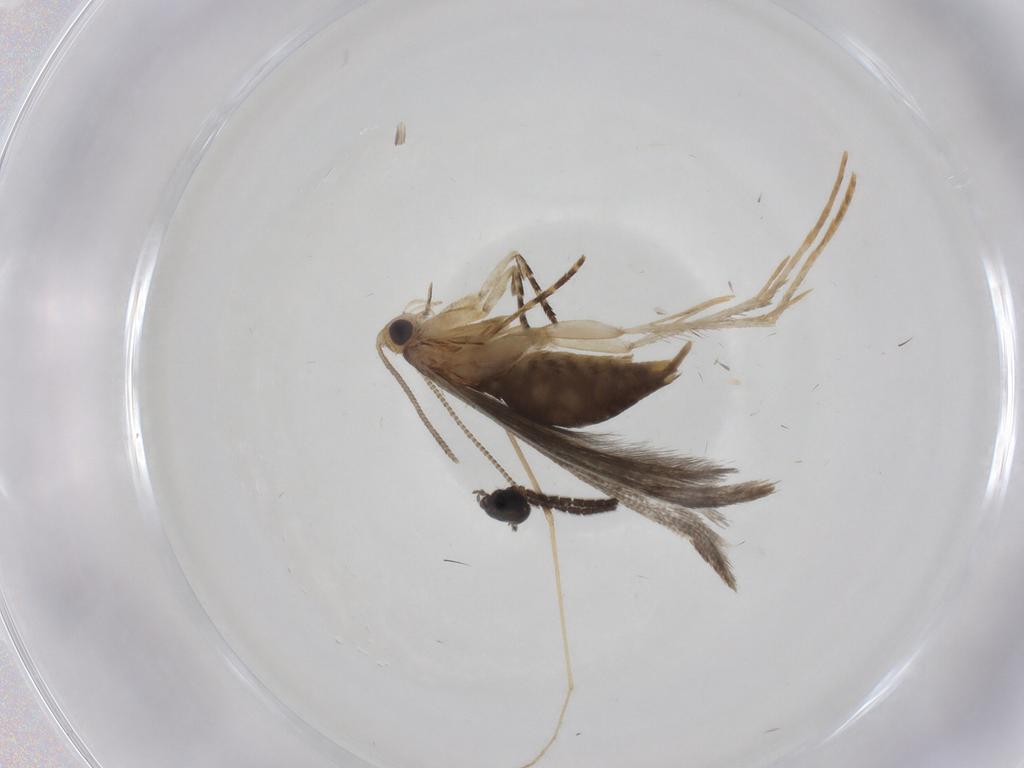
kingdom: Animalia
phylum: Arthropoda
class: Insecta
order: Lepidoptera
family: Tineidae
